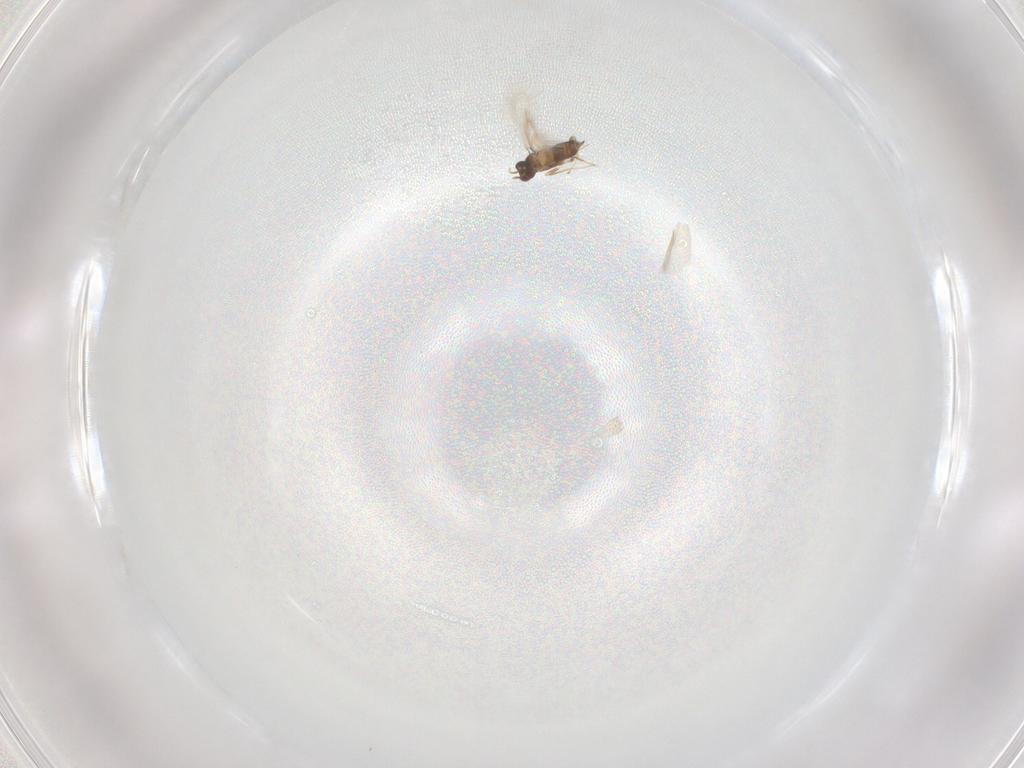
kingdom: Animalia
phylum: Arthropoda
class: Insecta
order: Hymenoptera
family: Mymaridae
